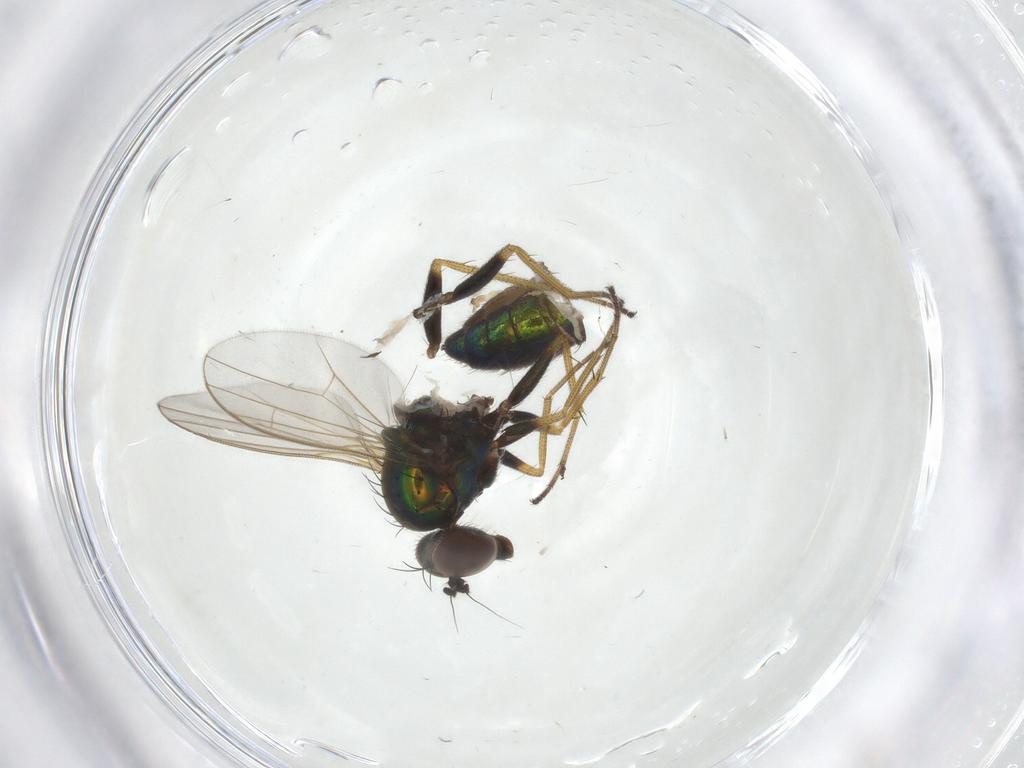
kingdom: Animalia
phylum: Arthropoda
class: Insecta
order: Diptera
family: Dolichopodidae
